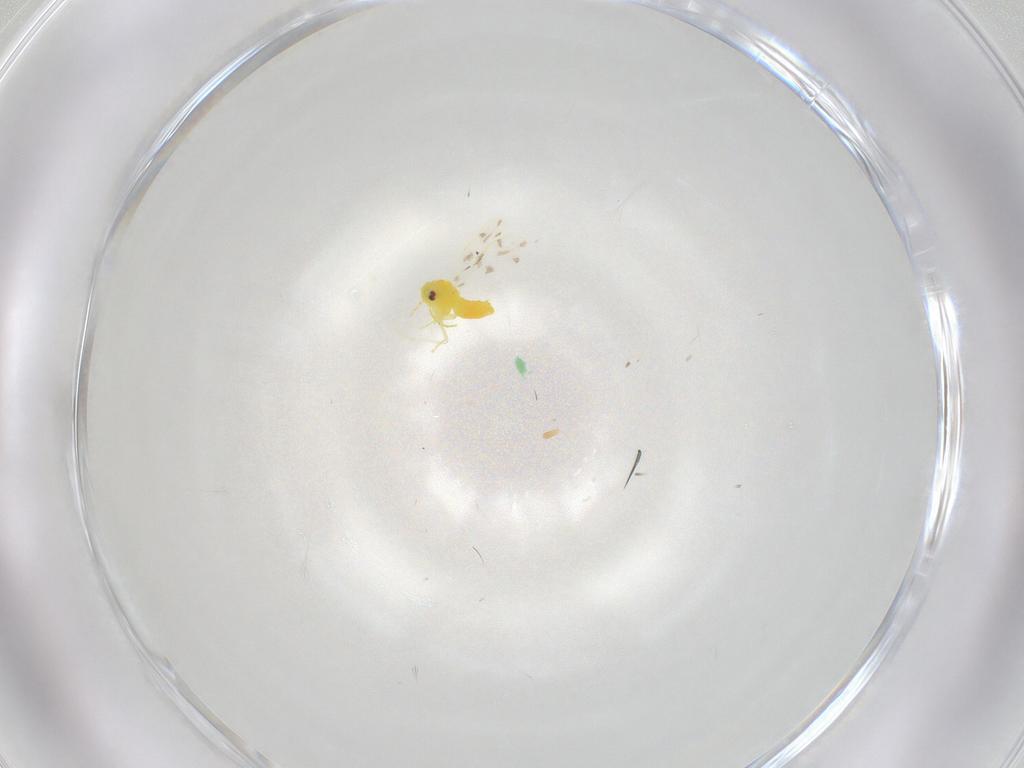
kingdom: Animalia
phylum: Arthropoda
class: Insecta
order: Hemiptera
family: Aleyrodidae
